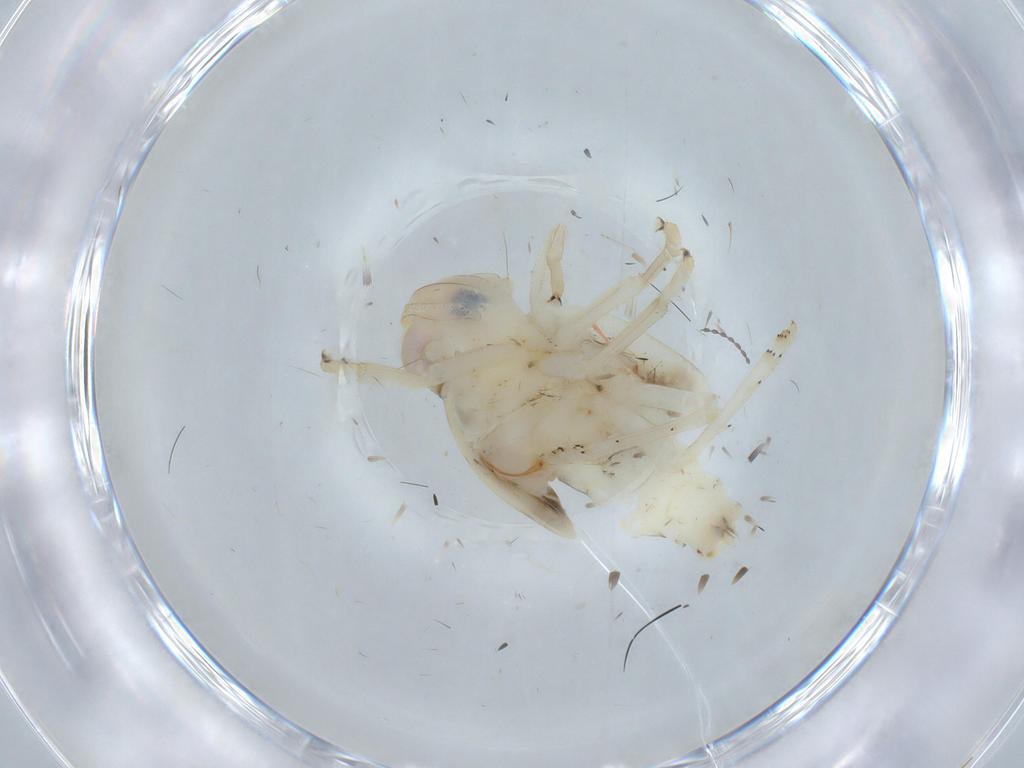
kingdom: Animalia
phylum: Arthropoda
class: Insecta
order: Hemiptera
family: Nogodinidae
